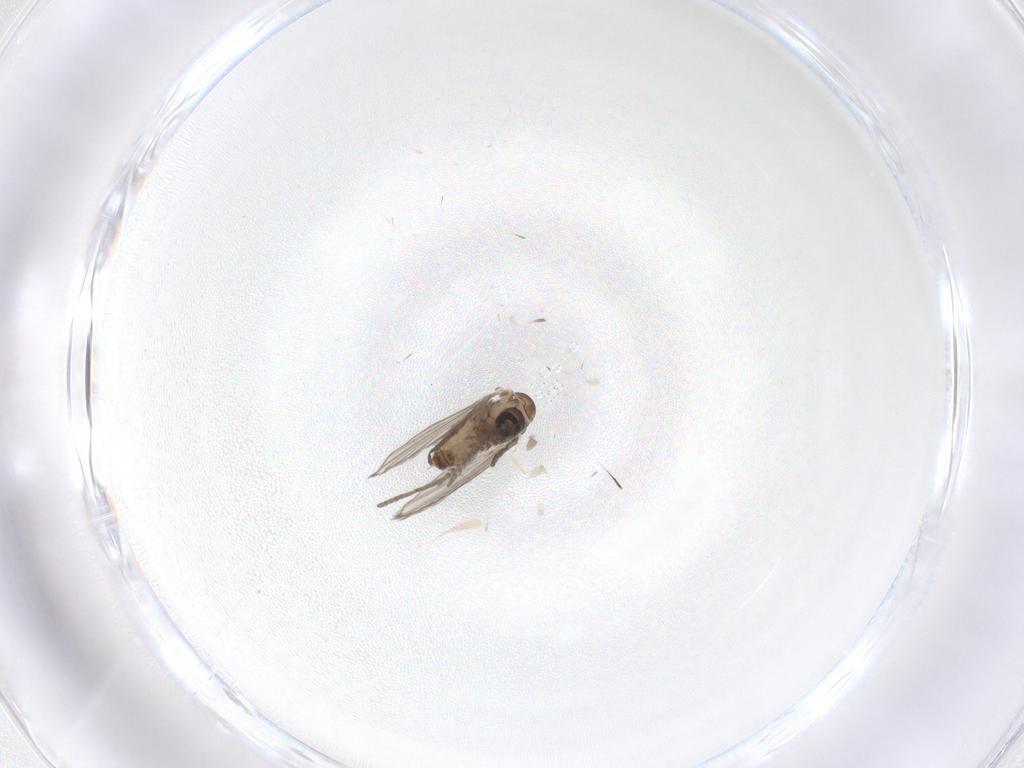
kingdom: Animalia
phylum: Arthropoda
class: Insecta
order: Diptera
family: Psychodidae
